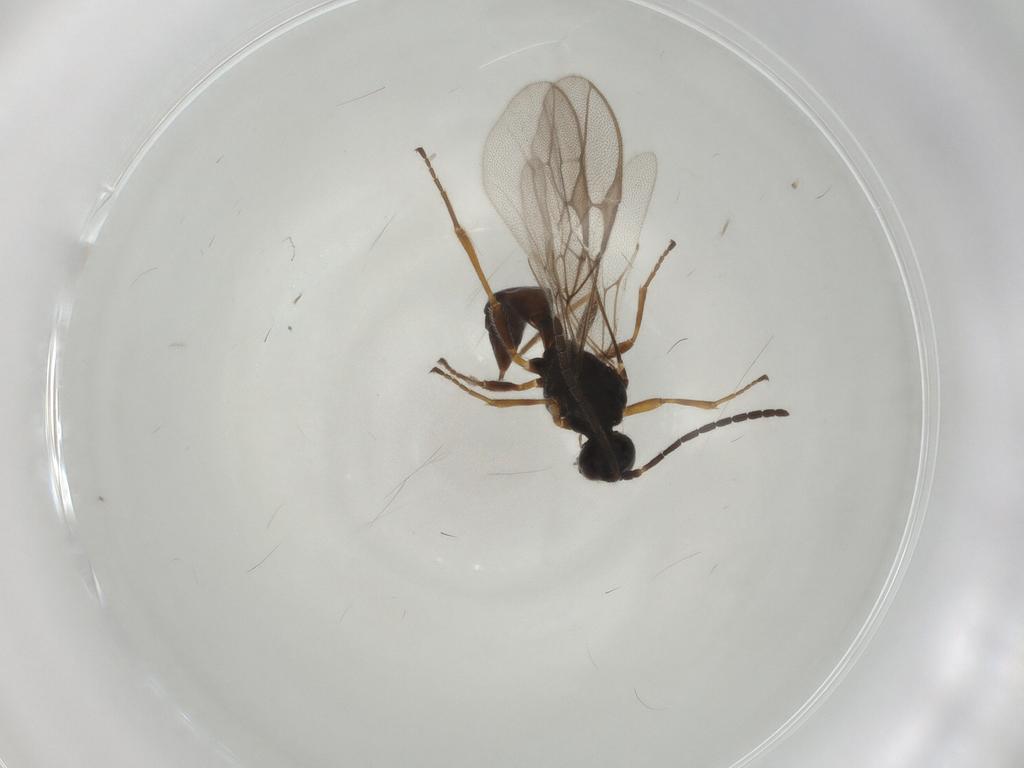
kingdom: Animalia
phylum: Arthropoda
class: Insecta
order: Hymenoptera
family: Braconidae
